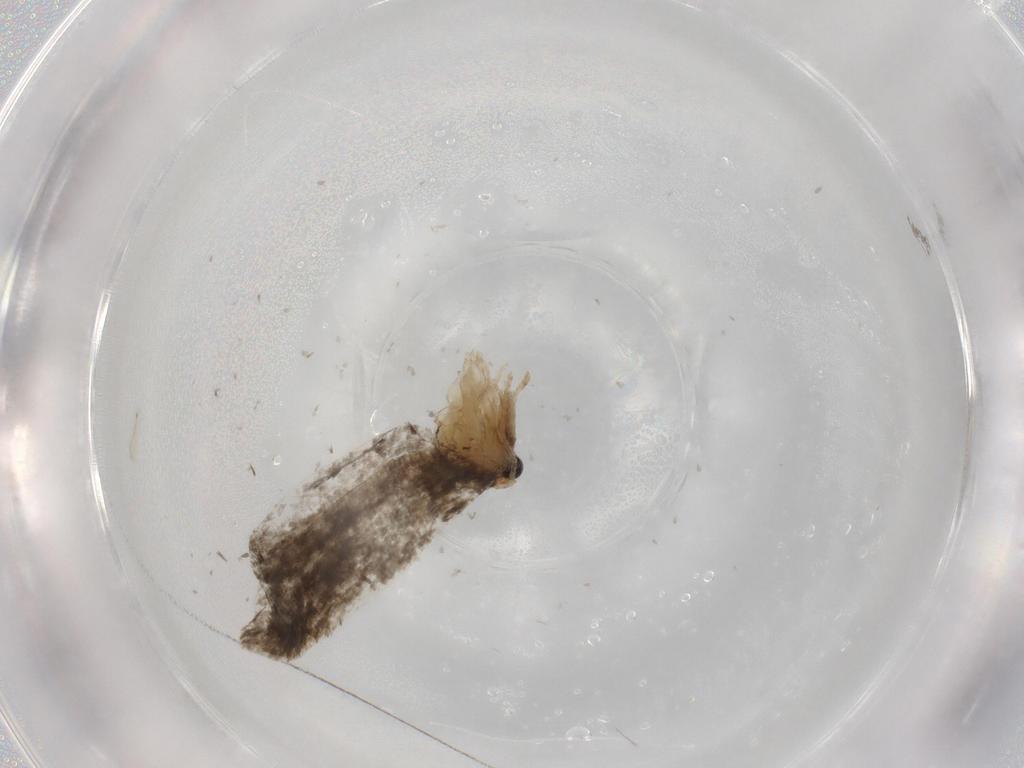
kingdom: Animalia
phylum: Arthropoda
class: Insecta
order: Lepidoptera
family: Psychidae
